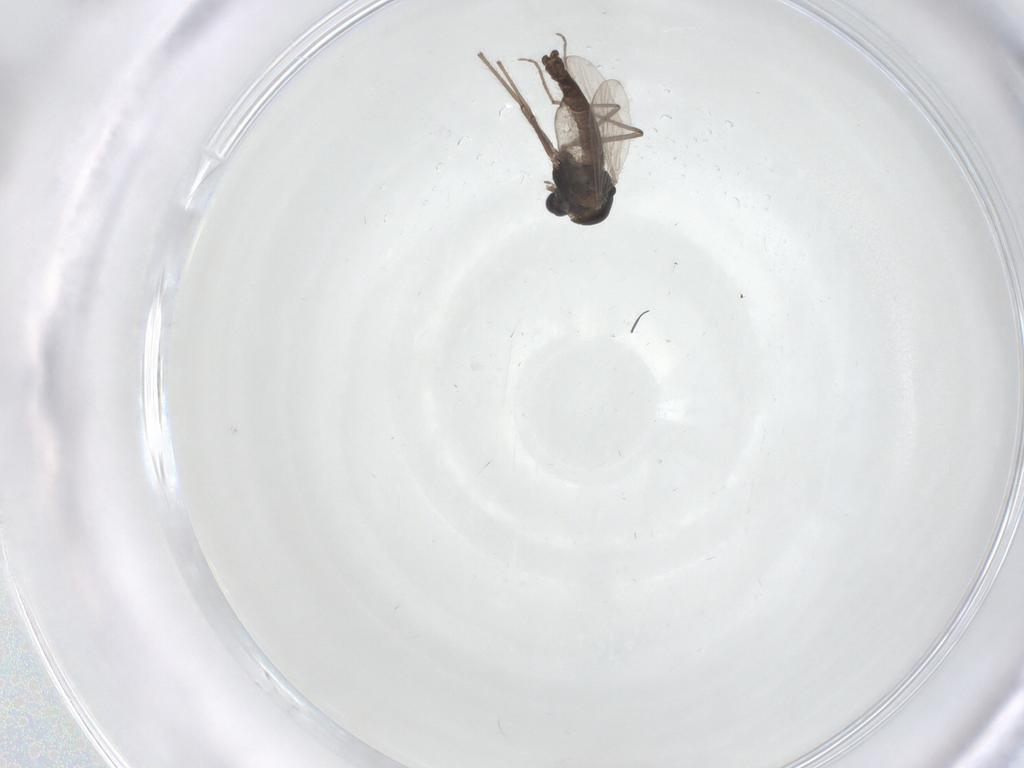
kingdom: Animalia
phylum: Arthropoda
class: Insecta
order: Diptera
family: Chironomidae
